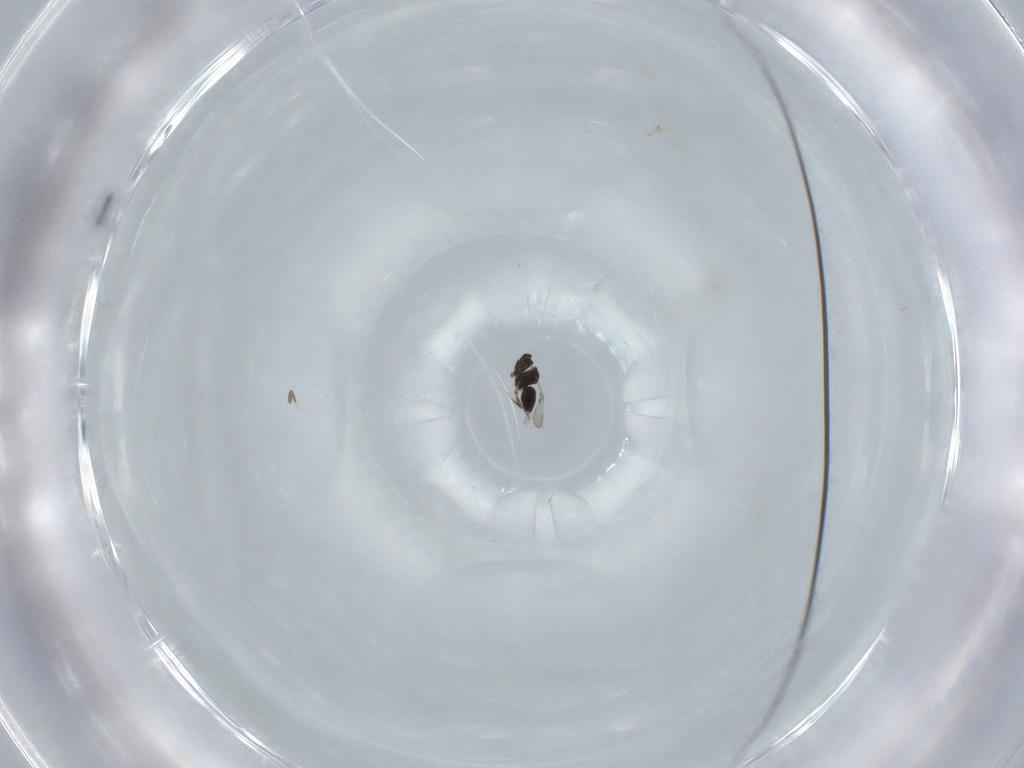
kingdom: Animalia
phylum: Arthropoda
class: Insecta
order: Hymenoptera
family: Ceraphronidae
